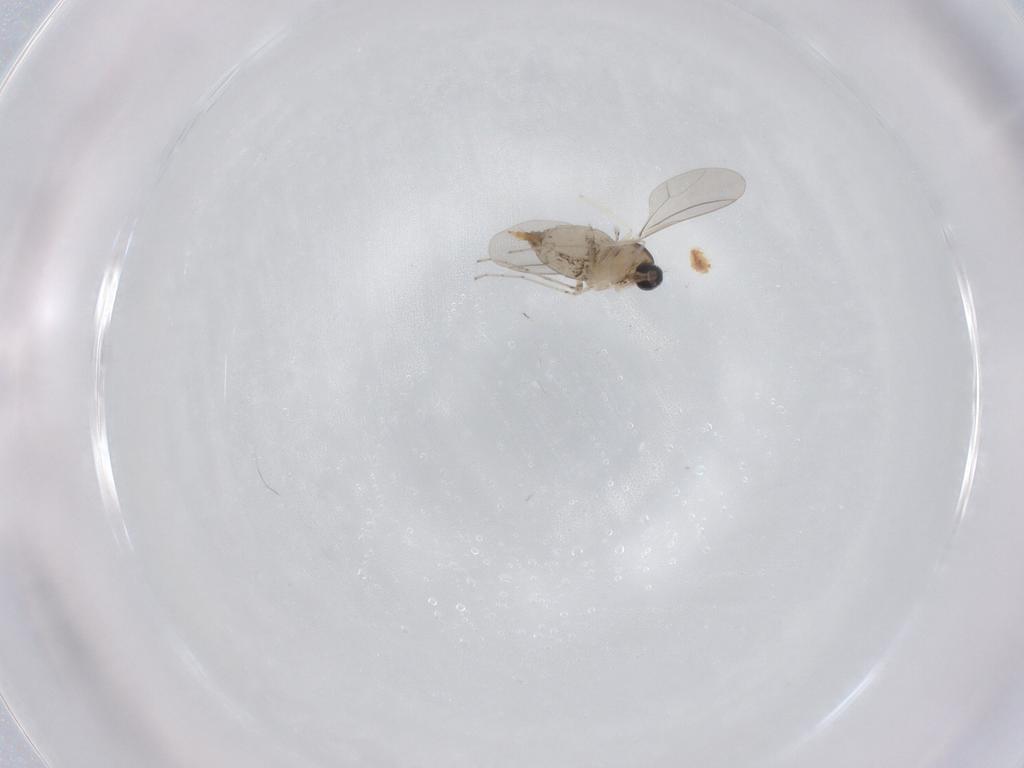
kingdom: Animalia
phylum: Arthropoda
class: Insecta
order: Diptera
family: Cecidomyiidae
